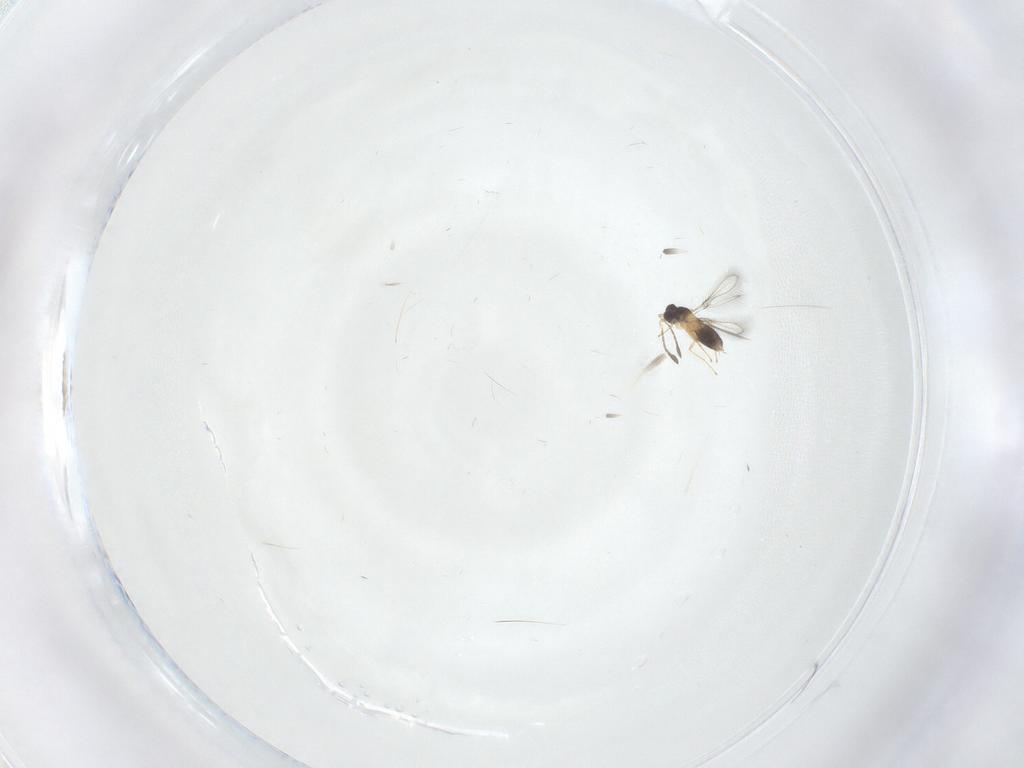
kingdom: Animalia
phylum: Arthropoda
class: Insecta
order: Hymenoptera
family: Mymaridae
